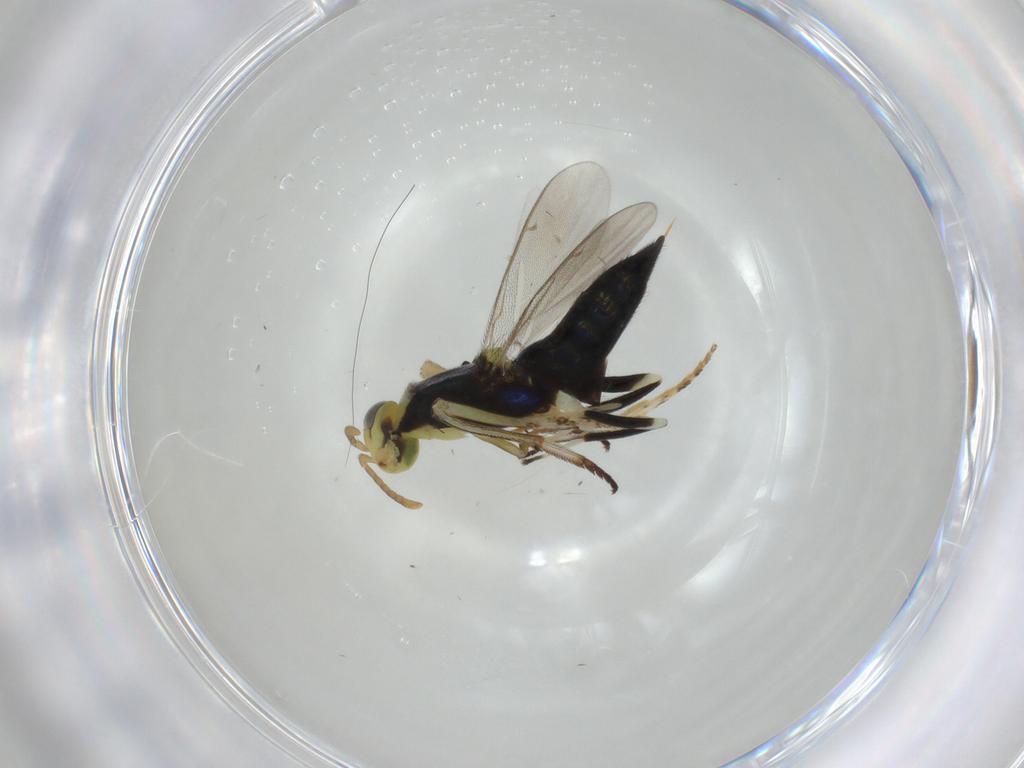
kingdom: Animalia
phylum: Arthropoda
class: Insecta
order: Hymenoptera
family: Eupelmidae
